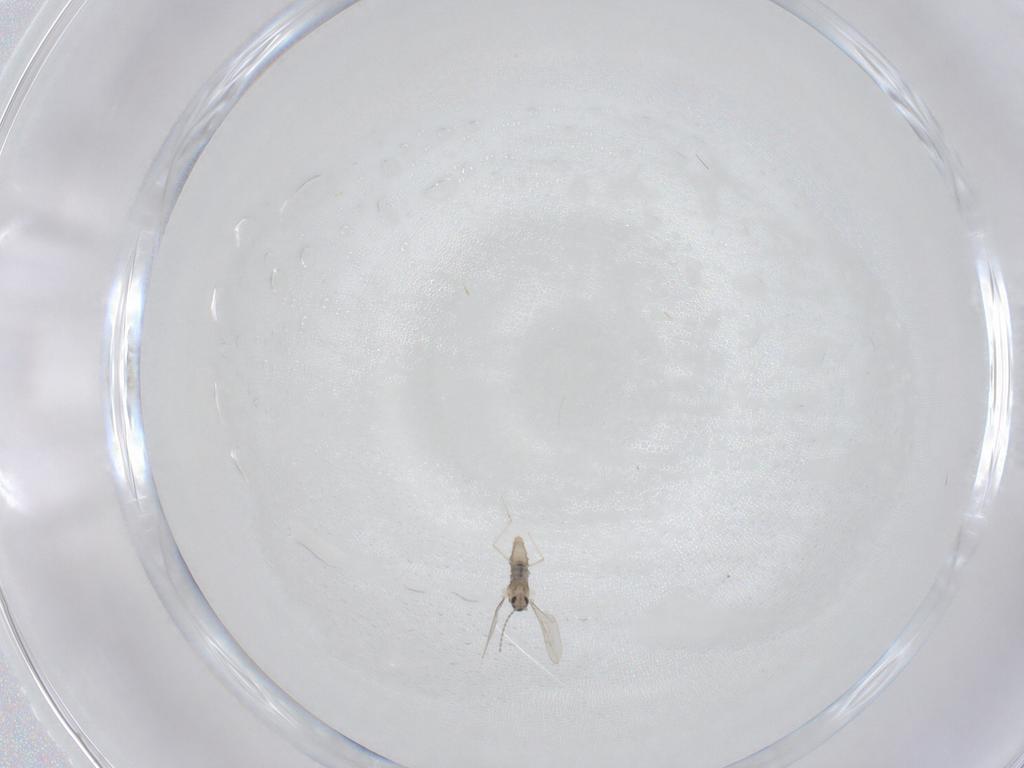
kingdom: Animalia
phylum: Arthropoda
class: Insecta
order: Diptera
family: Cecidomyiidae
